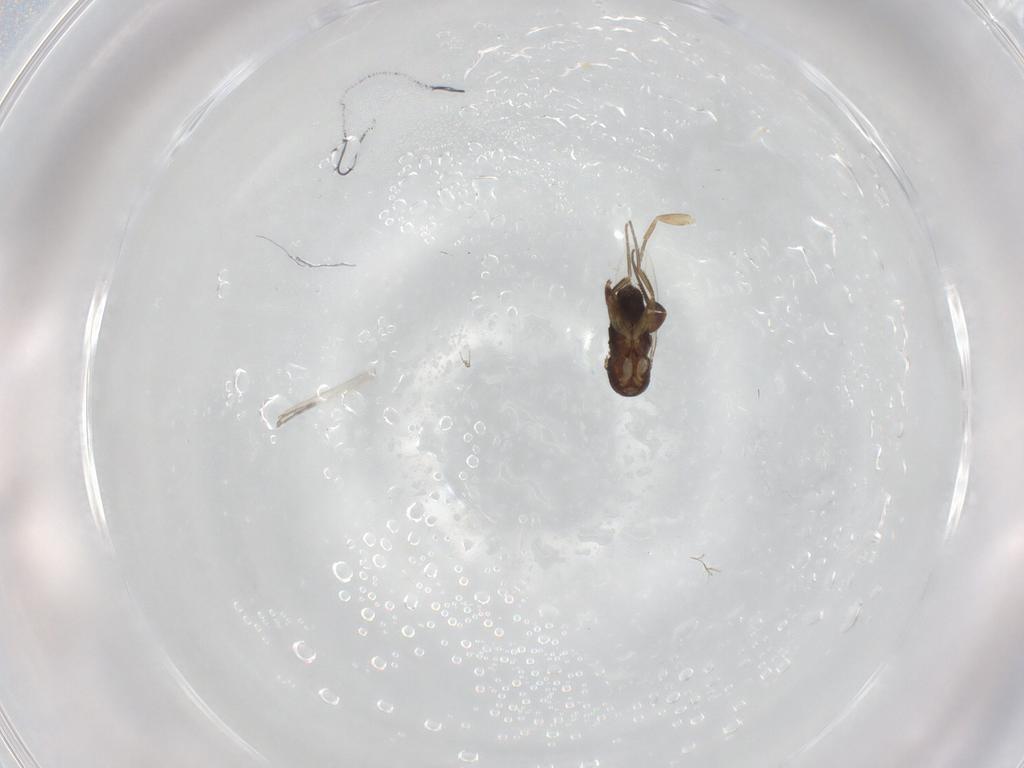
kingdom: Animalia
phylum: Arthropoda
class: Insecta
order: Diptera
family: Phoridae
